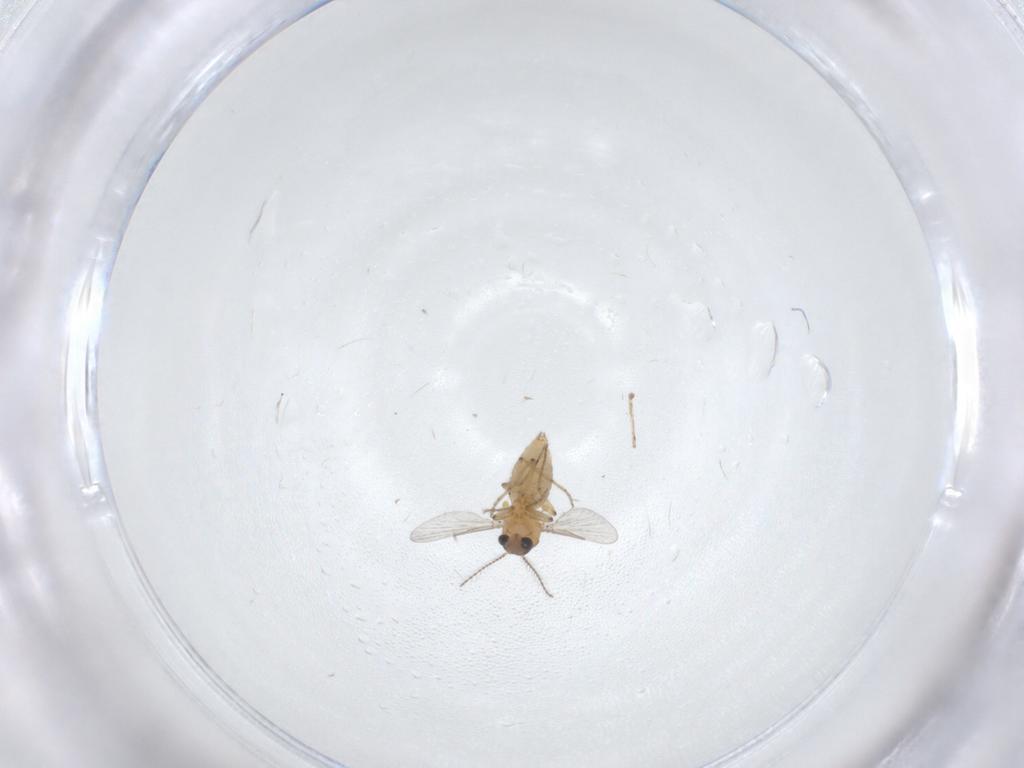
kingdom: Animalia
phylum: Arthropoda
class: Insecta
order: Diptera
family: Ceratopogonidae
